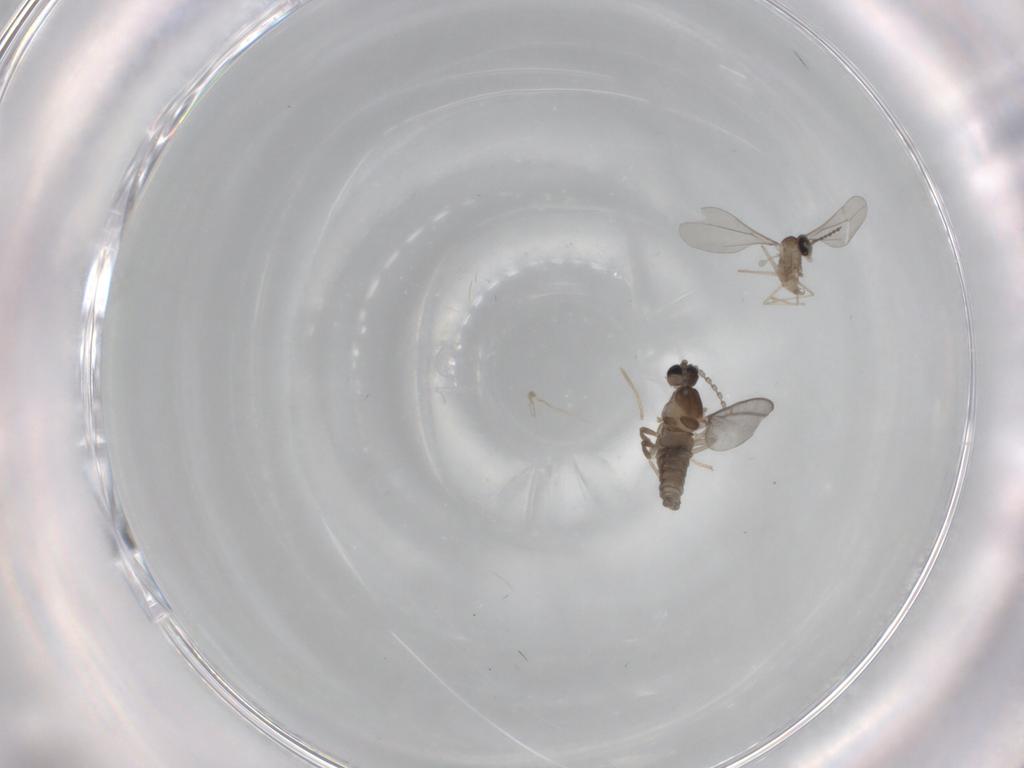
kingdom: Animalia
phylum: Arthropoda
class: Insecta
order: Diptera
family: Cecidomyiidae
